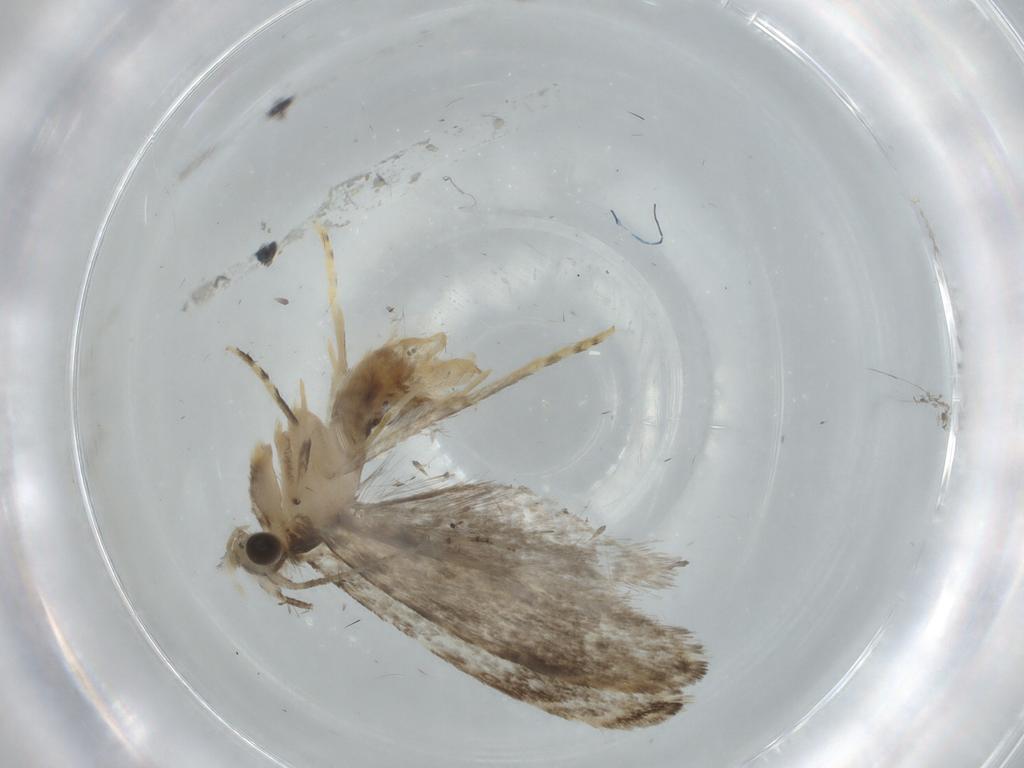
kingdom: Animalia
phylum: Arthropoda
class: Insecta
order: Lepidoptera
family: Tineidae
